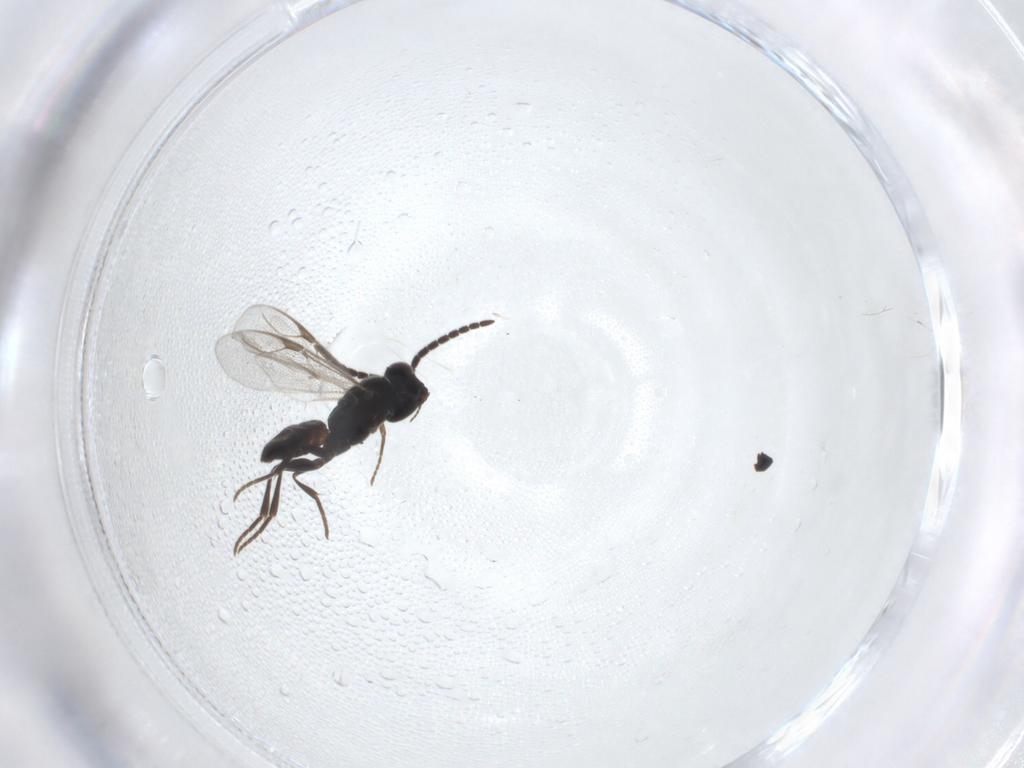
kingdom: Animalia
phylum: Arthropoda
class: Insecta
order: Hymenoptera
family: Dryinidae
